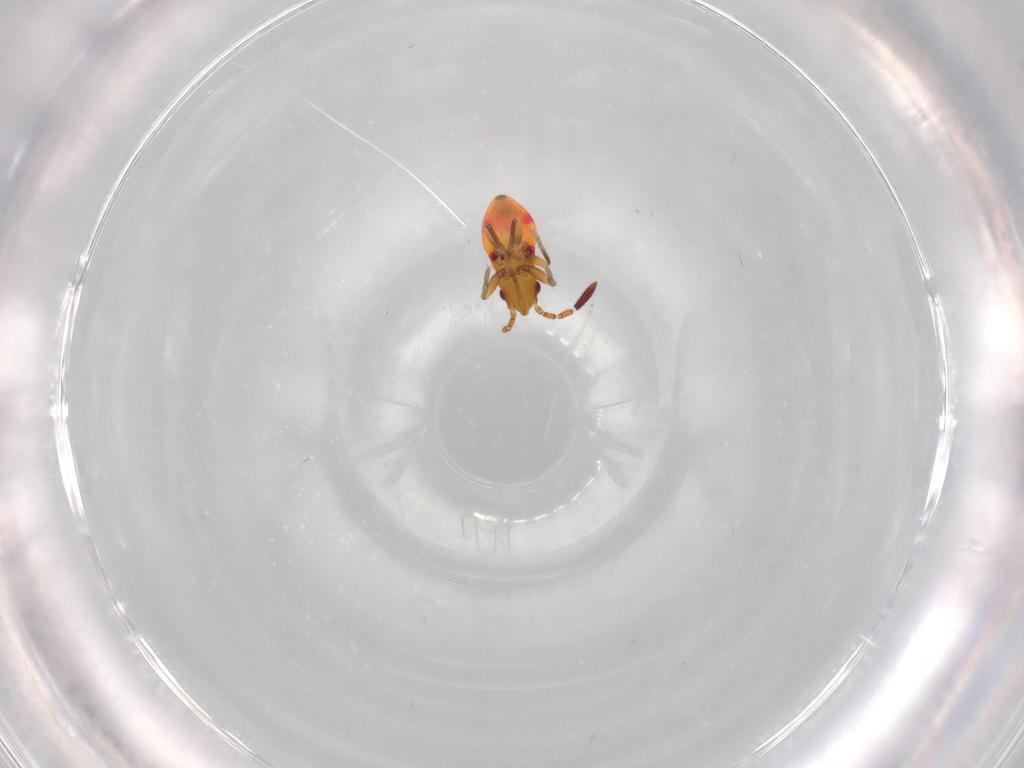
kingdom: Animalia
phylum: Arthropoda
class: Insecta
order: Hemiptera
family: Rhyparochromidae
